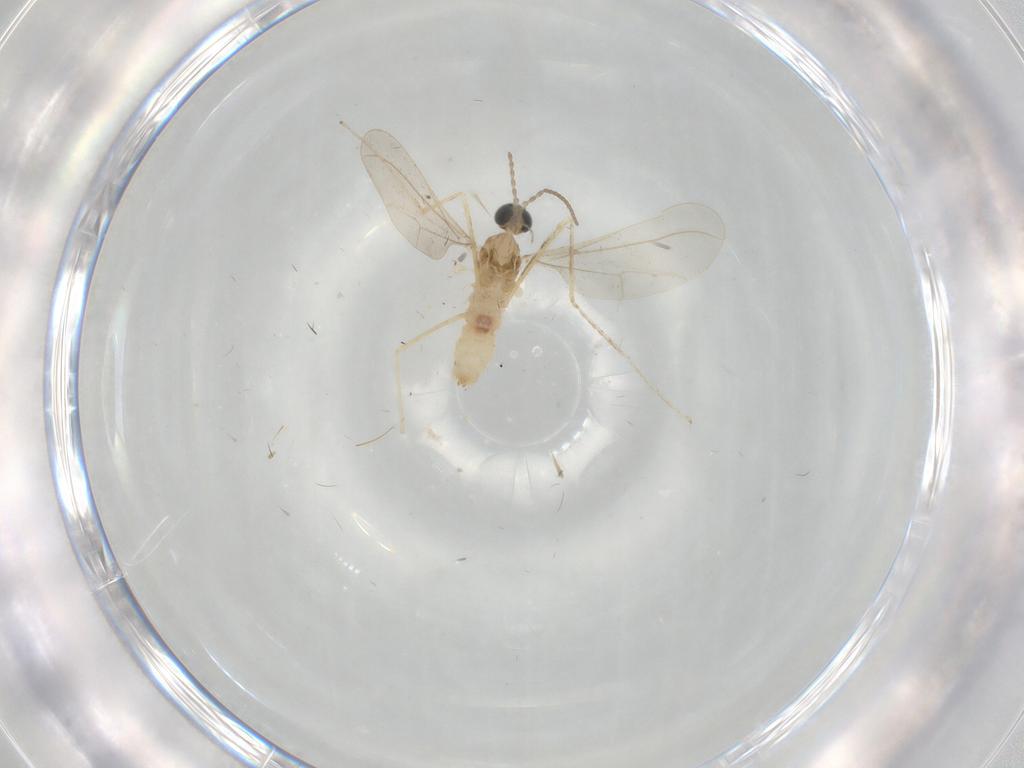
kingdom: Animalia
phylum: Arthropoda
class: Insecta
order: Diptera
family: Cecidomyiidae
